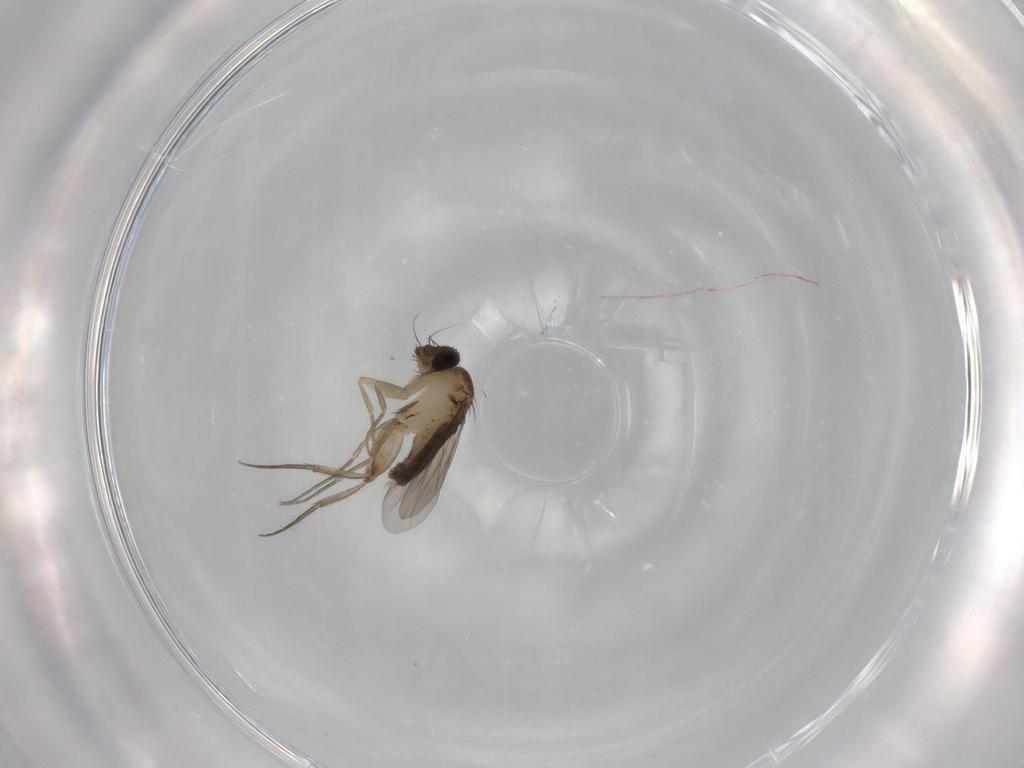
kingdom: Animalia
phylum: Arthropoda
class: Insecta
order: Diptera
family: Phoridae
